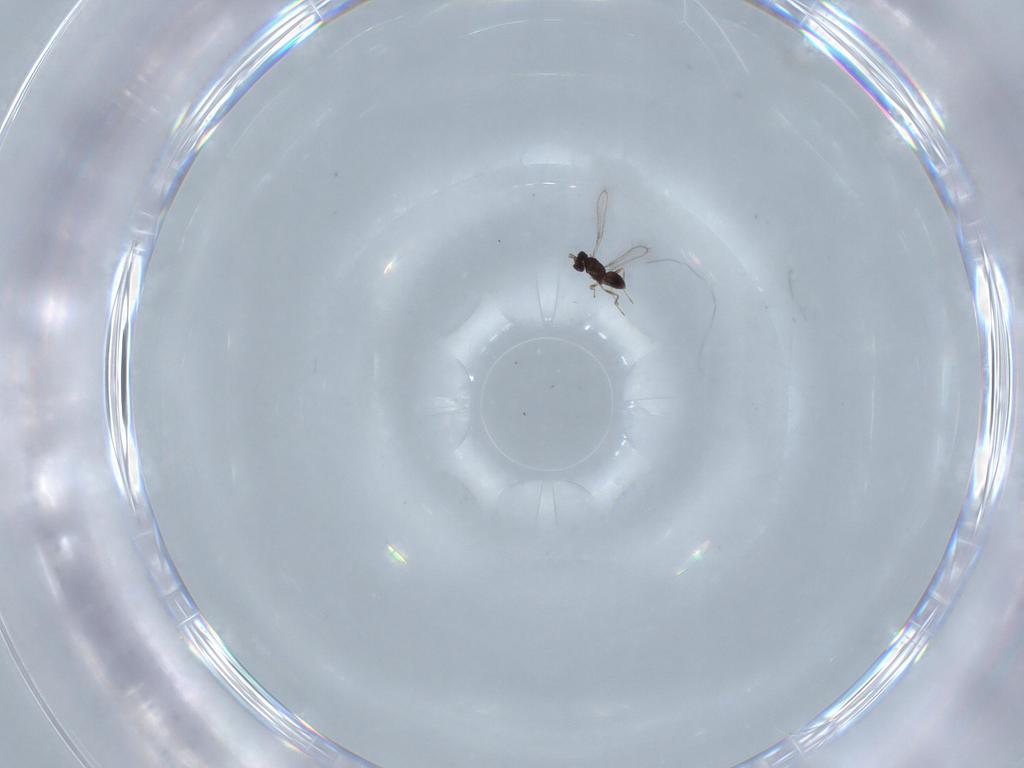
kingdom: Animalia
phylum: Arthropoda
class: Insecta
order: Hymenoptera
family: Mymaridae
